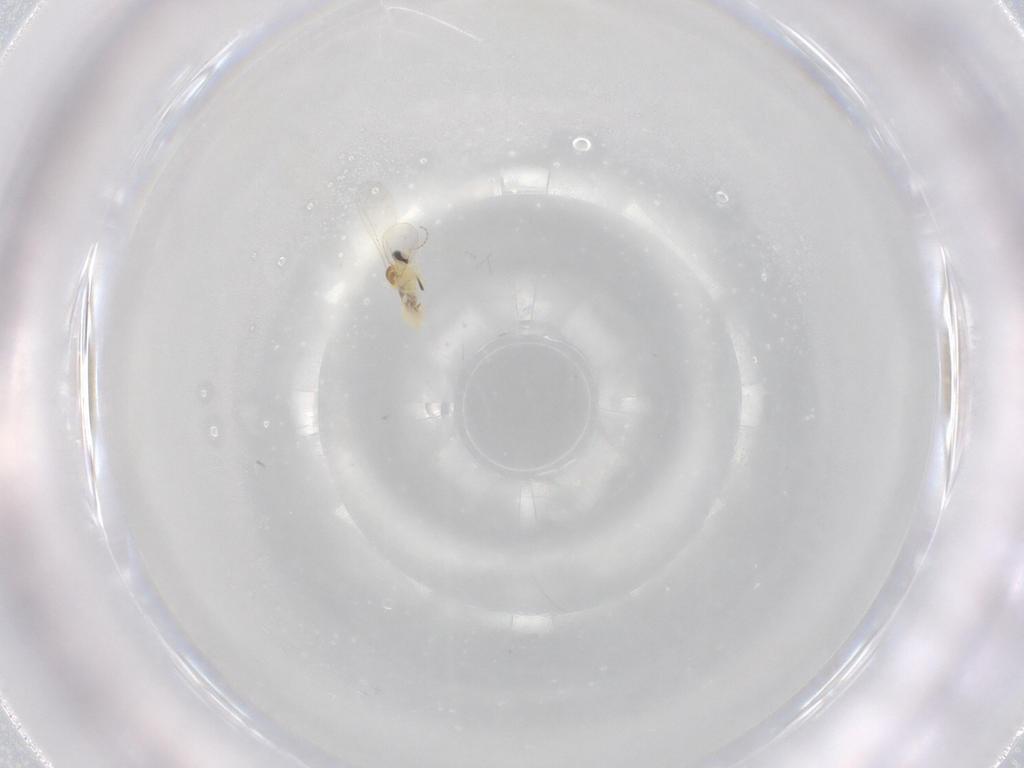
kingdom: Animalia
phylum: Arthropoda
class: Insecta
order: Diptera
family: Cecidomyiidae
